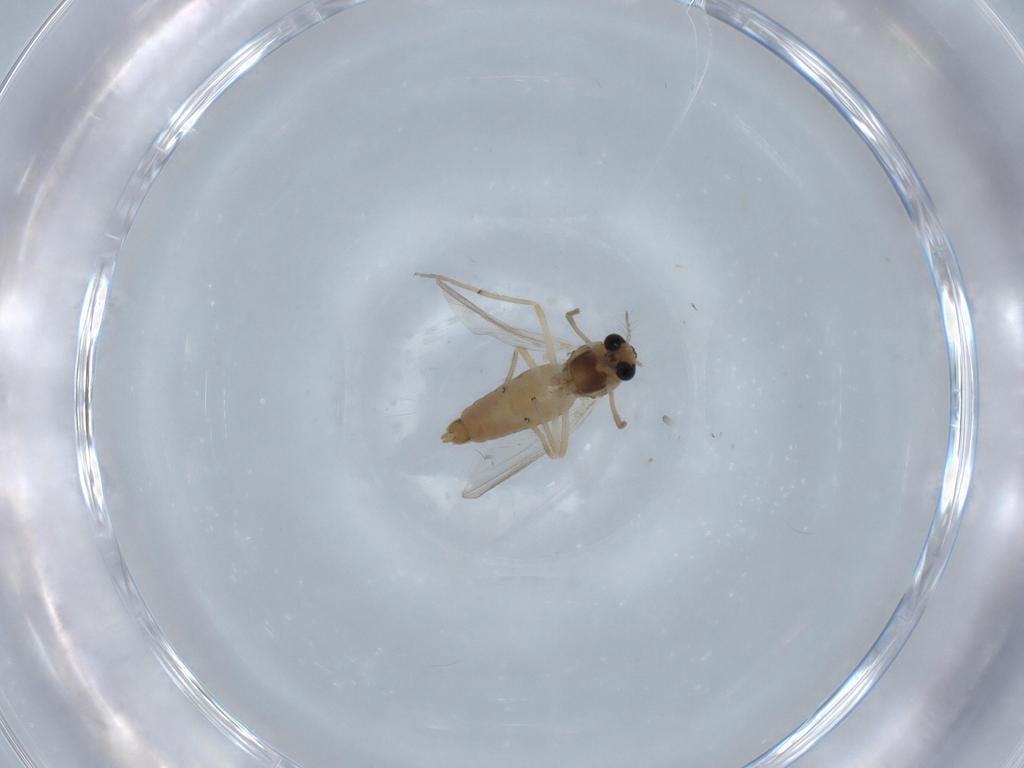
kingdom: Animalia
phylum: Arthropoda
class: Insecta
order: Diptera
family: Chironomidae
